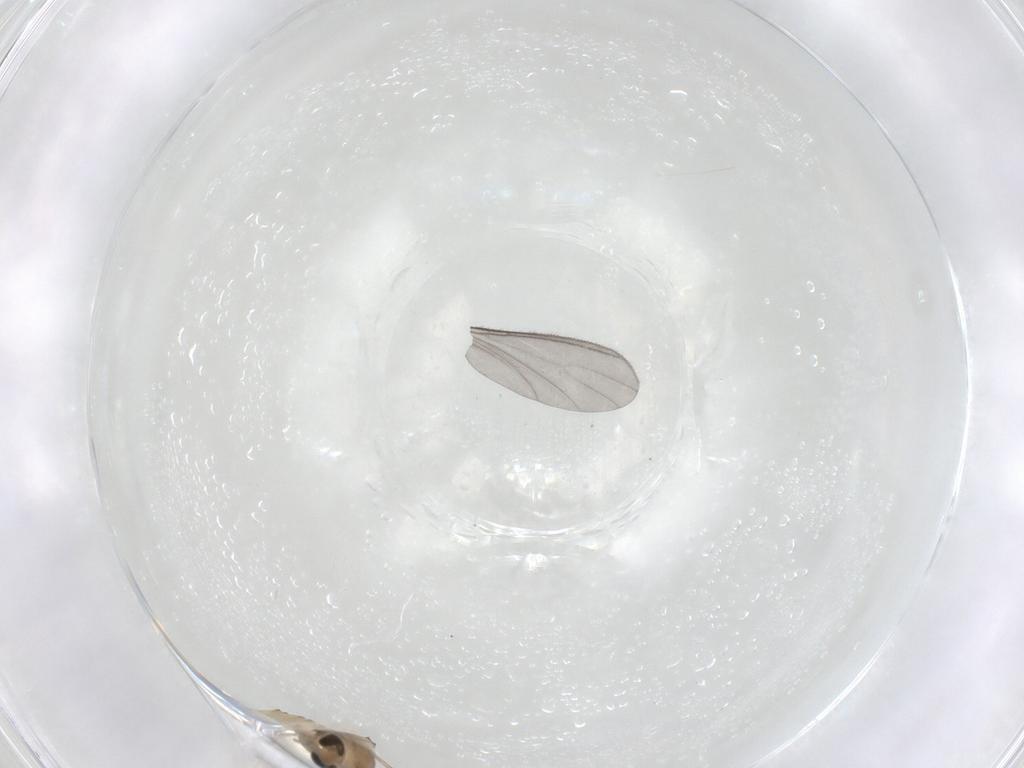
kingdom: Animalia
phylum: Arthropoda
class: Insecta
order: Diptera
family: Chironomidae
